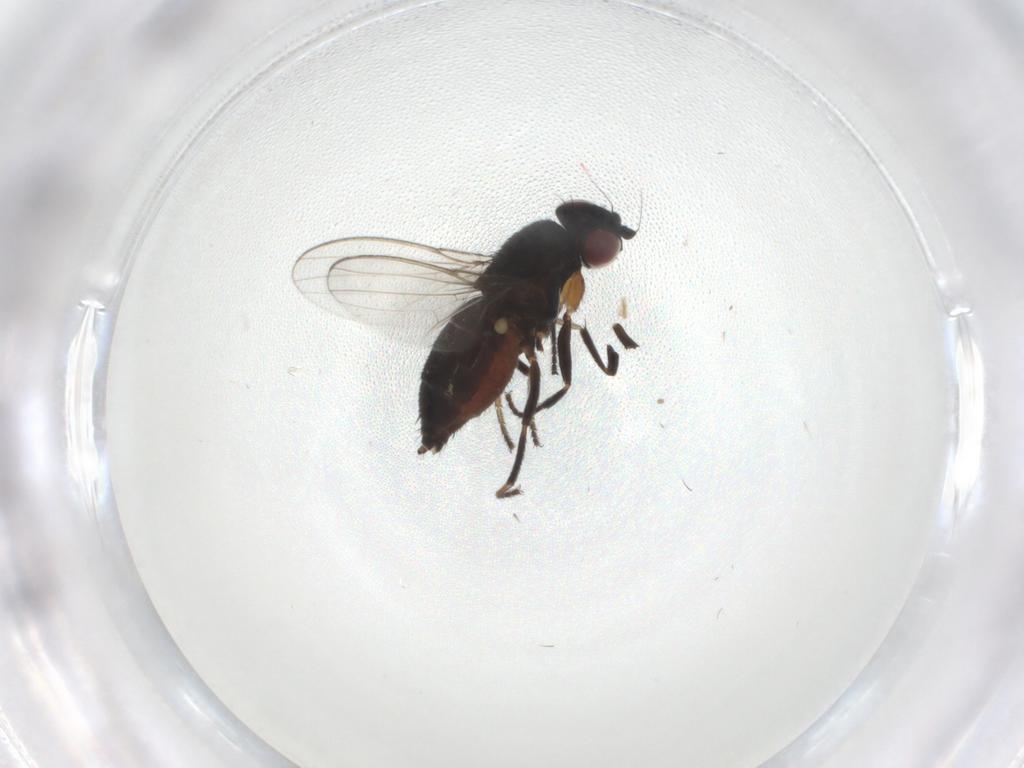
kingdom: Animalia
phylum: Arthropoda
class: Insecta
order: Diptera
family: Milichiidae
